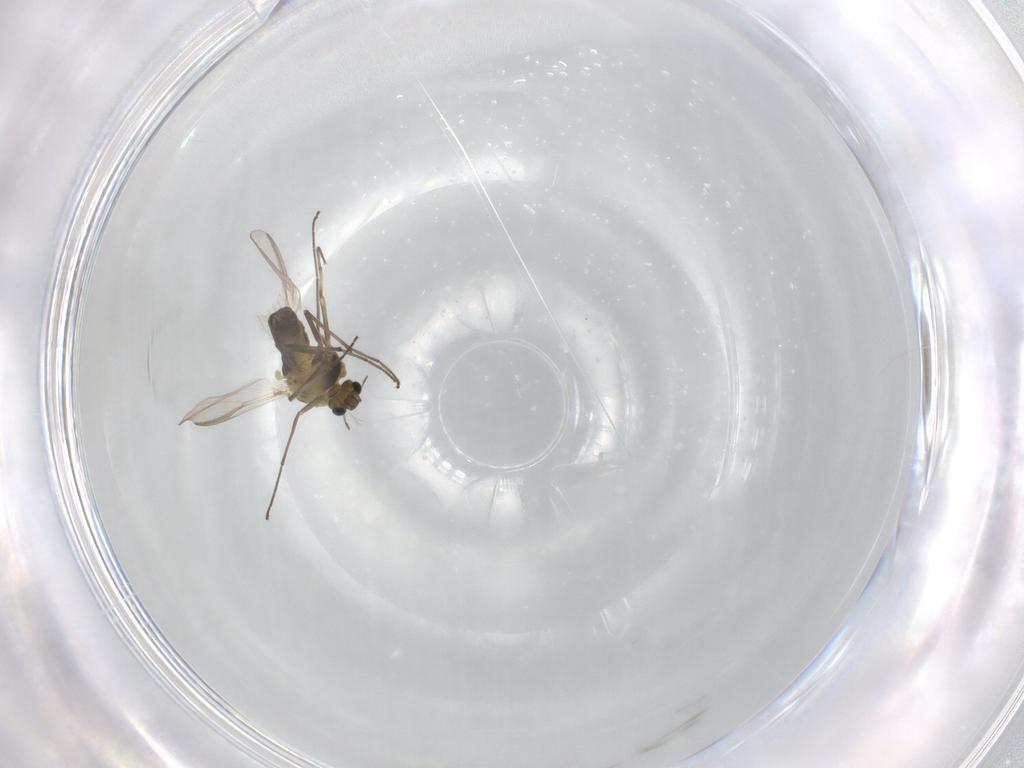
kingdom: Animalia
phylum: Arthropoda
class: Insecta
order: Diptera
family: Chironomidae
